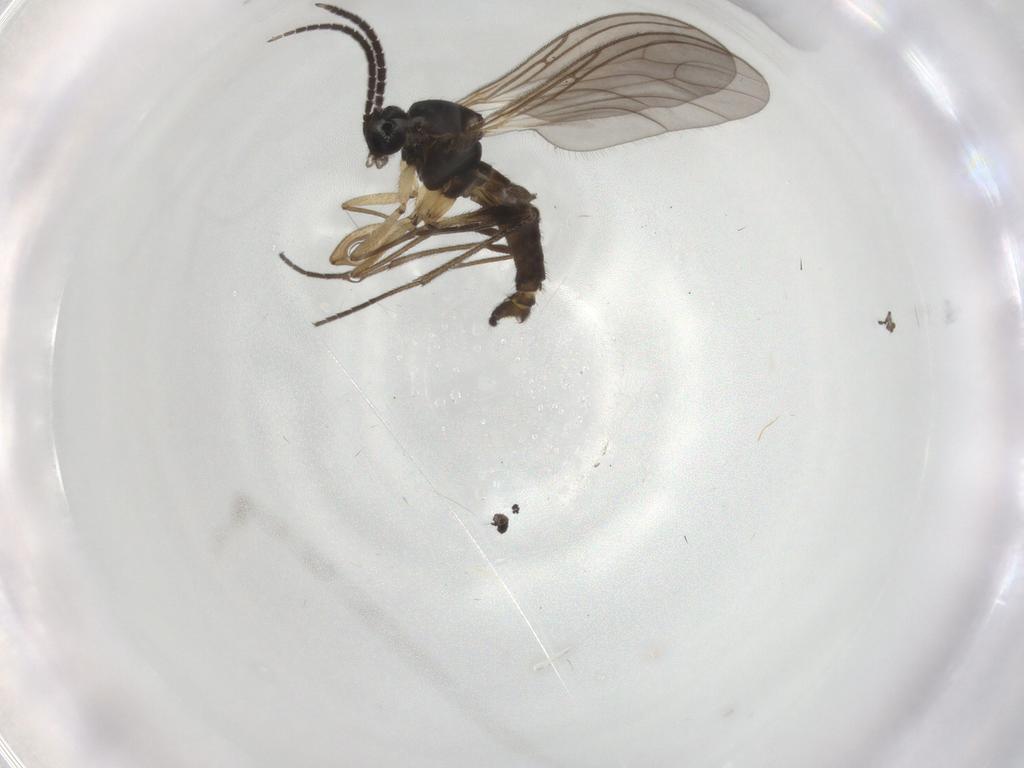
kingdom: Animalia
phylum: Arthropoda
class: Insecta
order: Diptera
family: Sciaridae
